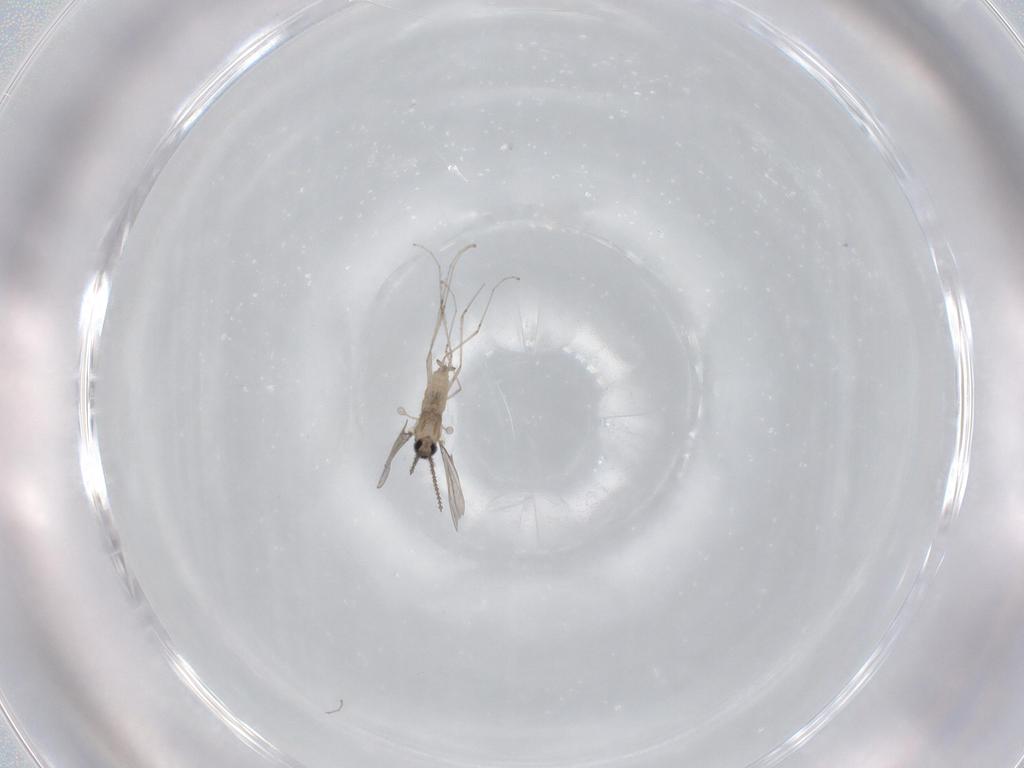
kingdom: Animalia
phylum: Arthropoda
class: Insecta
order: Diptera
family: Cecidomyiidae
